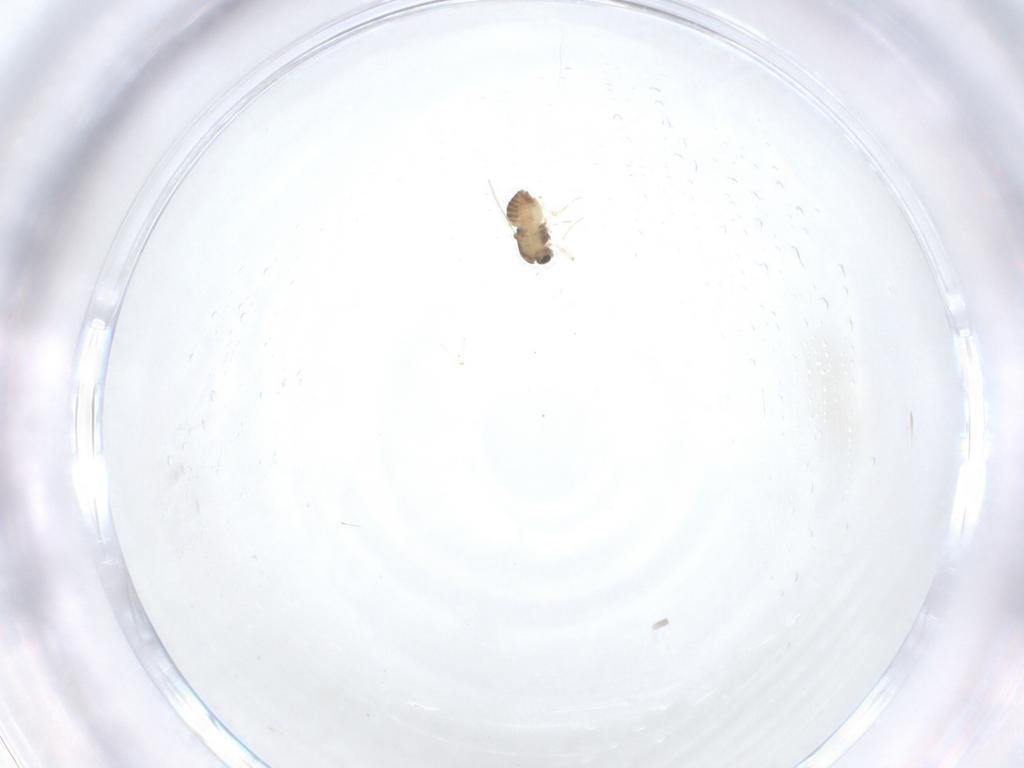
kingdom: Animalia
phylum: Arthropoda
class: Insecta
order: Diptera
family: Chironomidae
